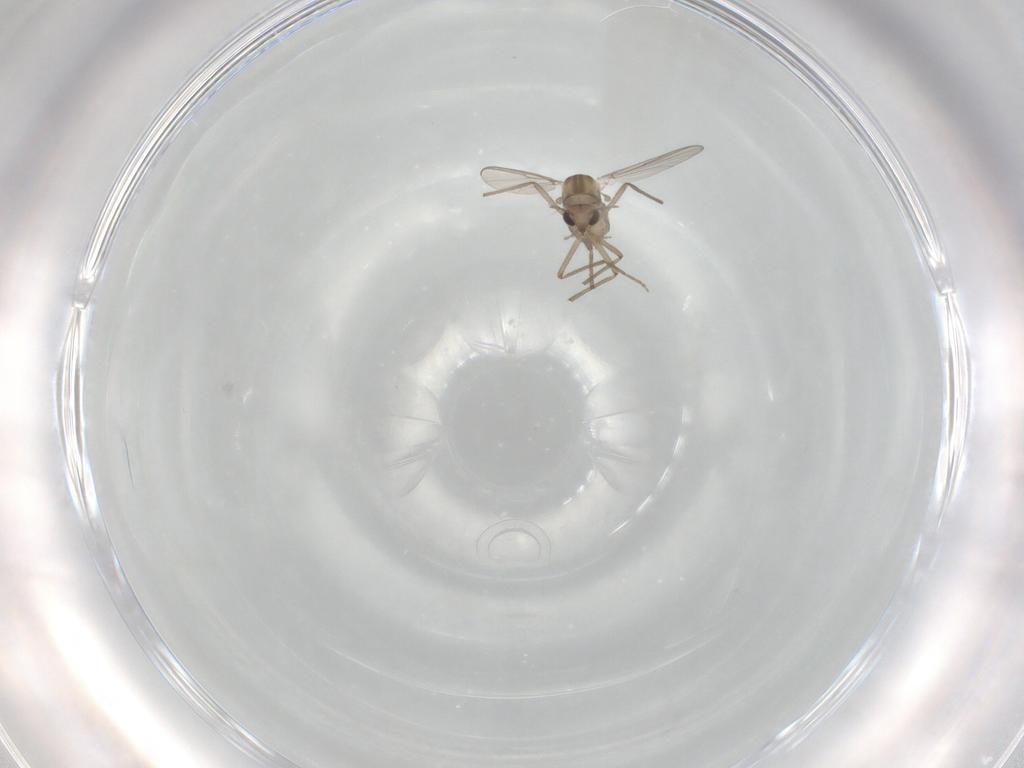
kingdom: Animalia
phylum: Arthropoda
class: Insecta
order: Diptera
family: Chironomidae
